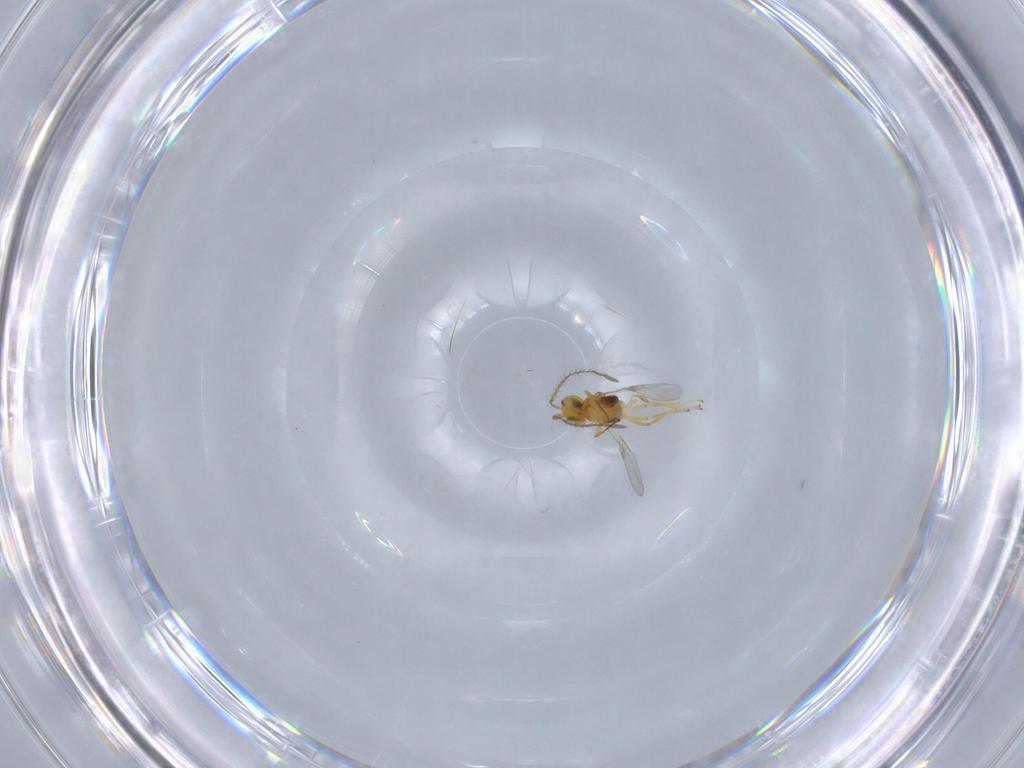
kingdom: Animalia
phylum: Arthropoda
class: Insecta
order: Hymenoptera
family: Encyrtidae
